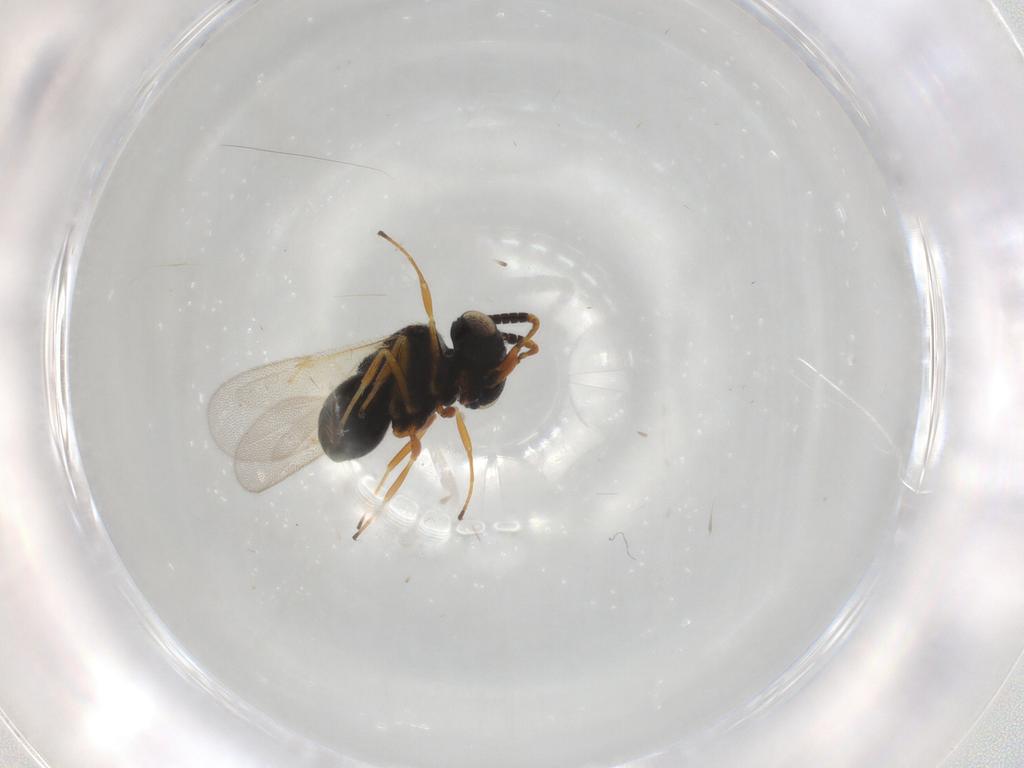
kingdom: Animalia
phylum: Arthropoda
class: Insecta
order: Hymenoptera
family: Scelionidae
